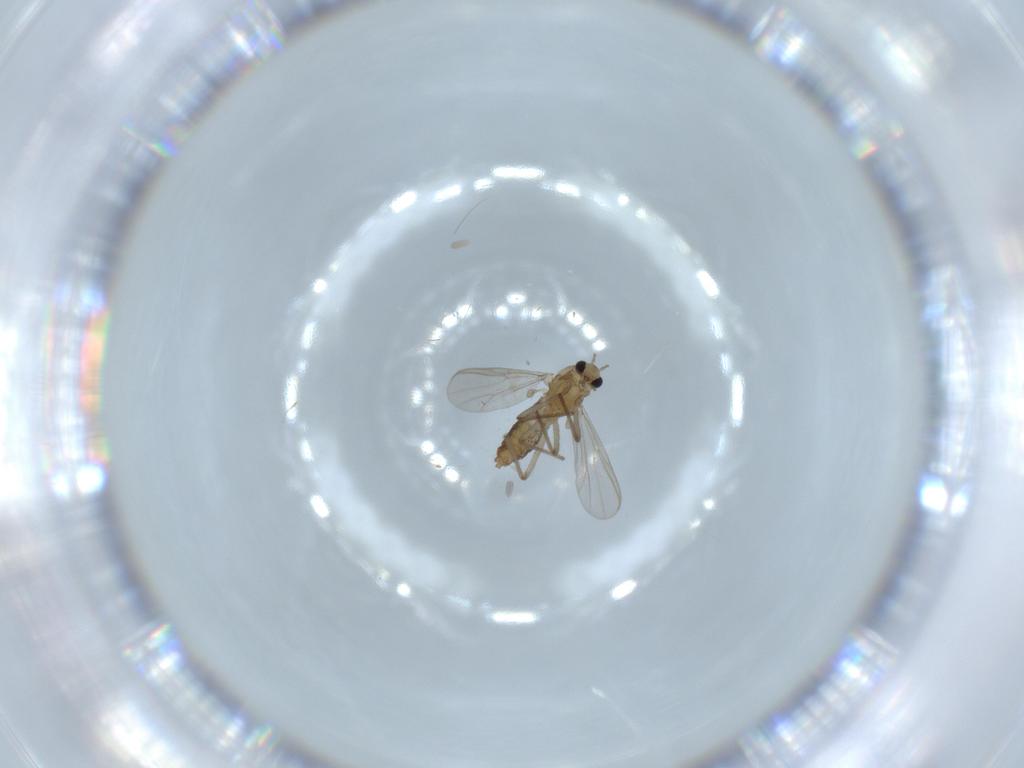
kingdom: Animalia
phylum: Arthropoda
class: Insecta
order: Diptera
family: Chironomidae
